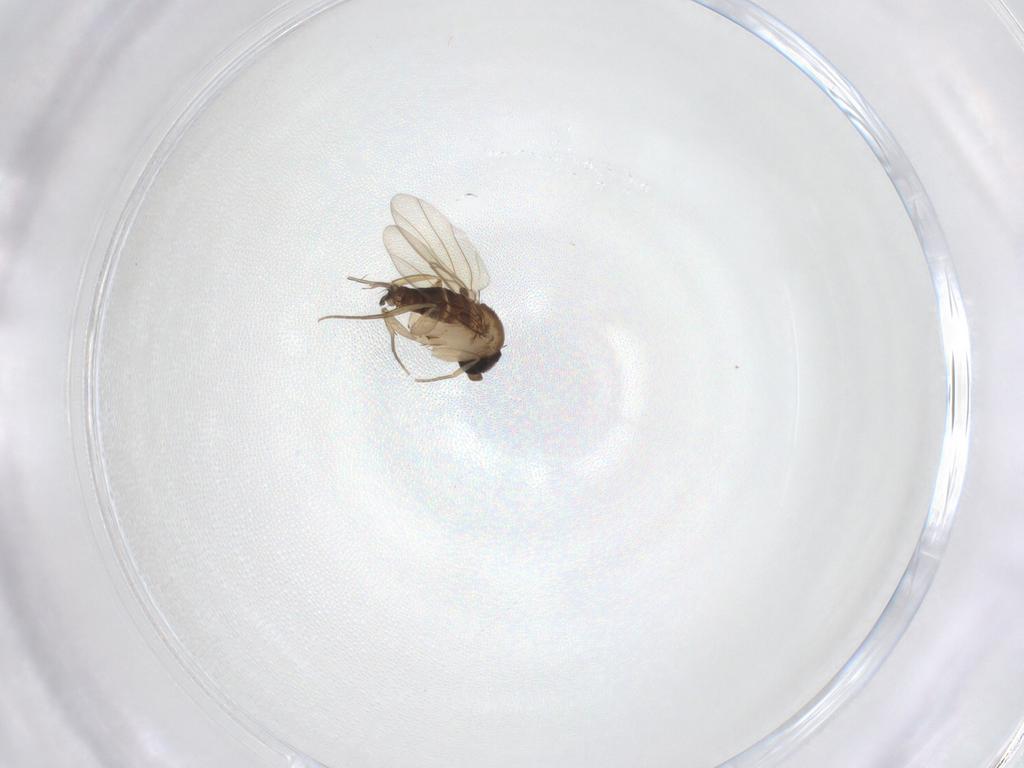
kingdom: Animalia
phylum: Arthropoda
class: Insecta
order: Diptera
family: Phoridae
